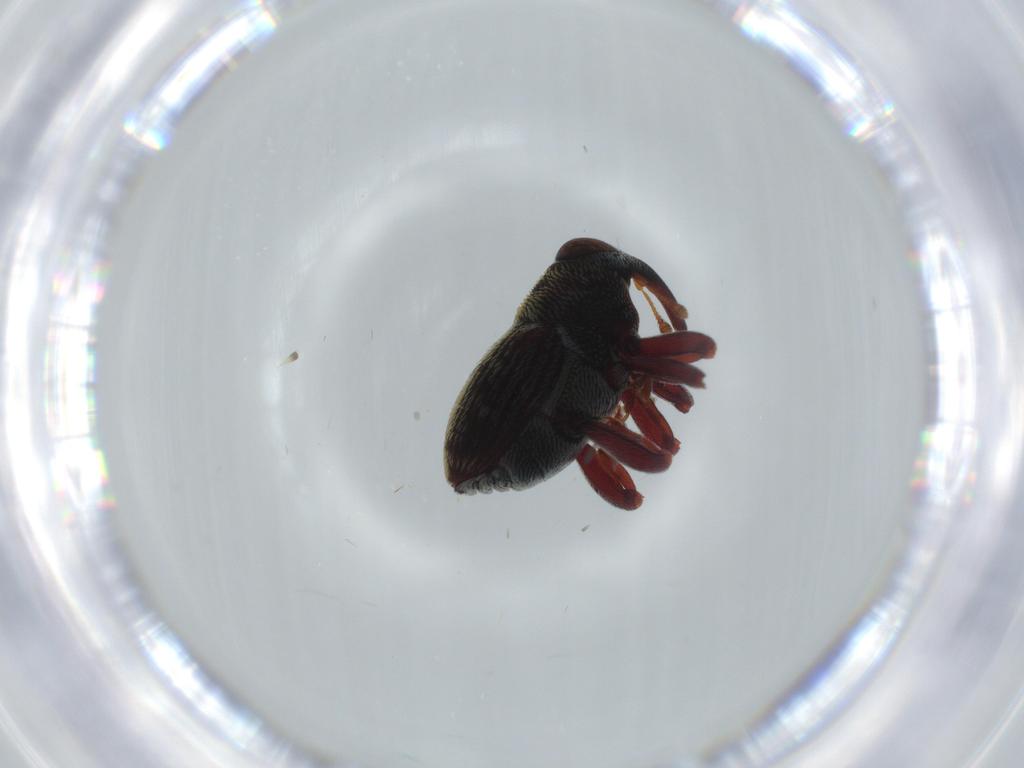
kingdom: Animalia
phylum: Arthropoda
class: Insecta
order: Coleoptera
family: Curculionidae
